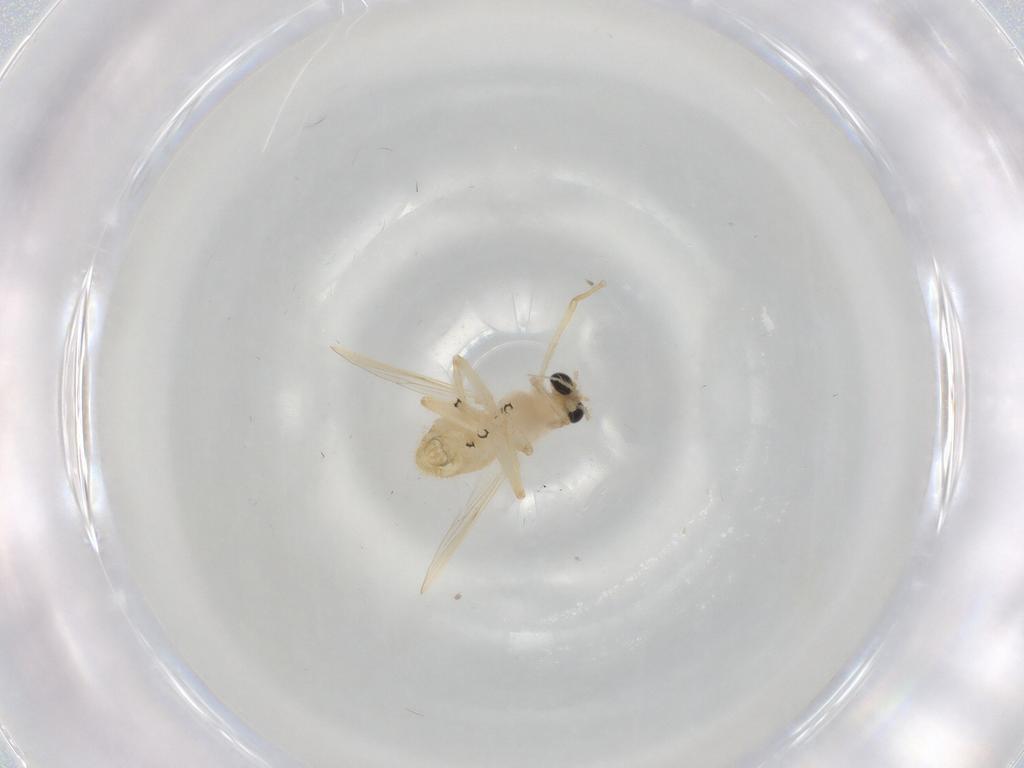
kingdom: Animalia
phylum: Arthropoda
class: Insecta
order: Diptera
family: Chironomidae
